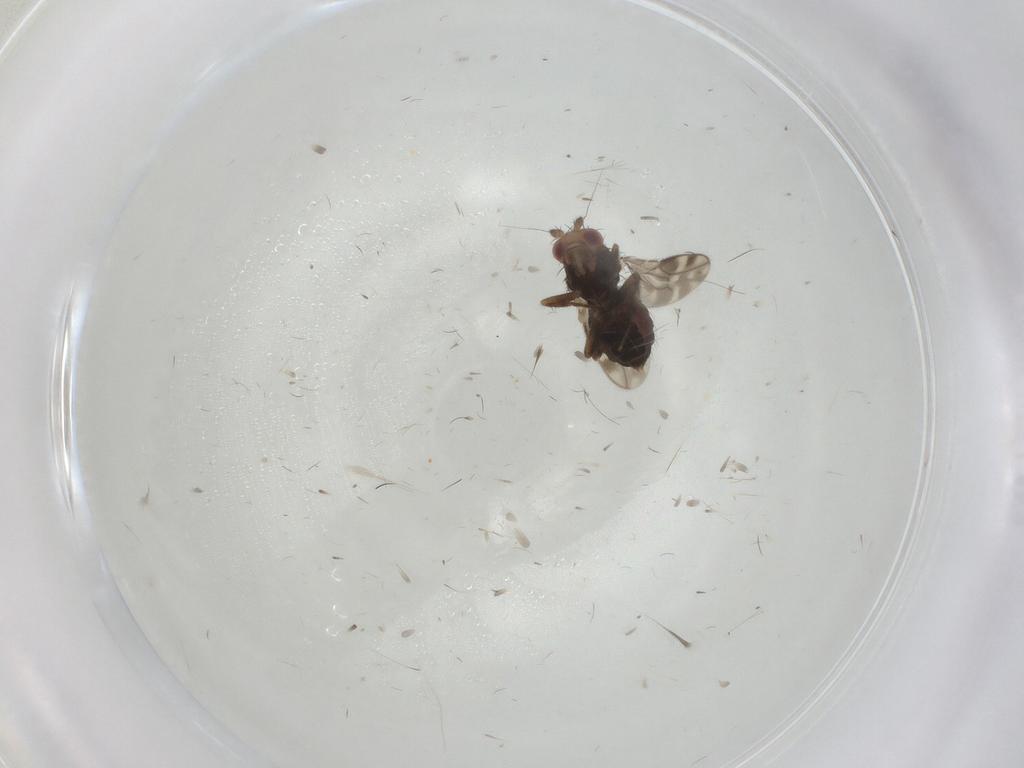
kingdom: Animalia
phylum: Arthropoda
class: Insecta
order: Diptera
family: Sphaeroceridae
